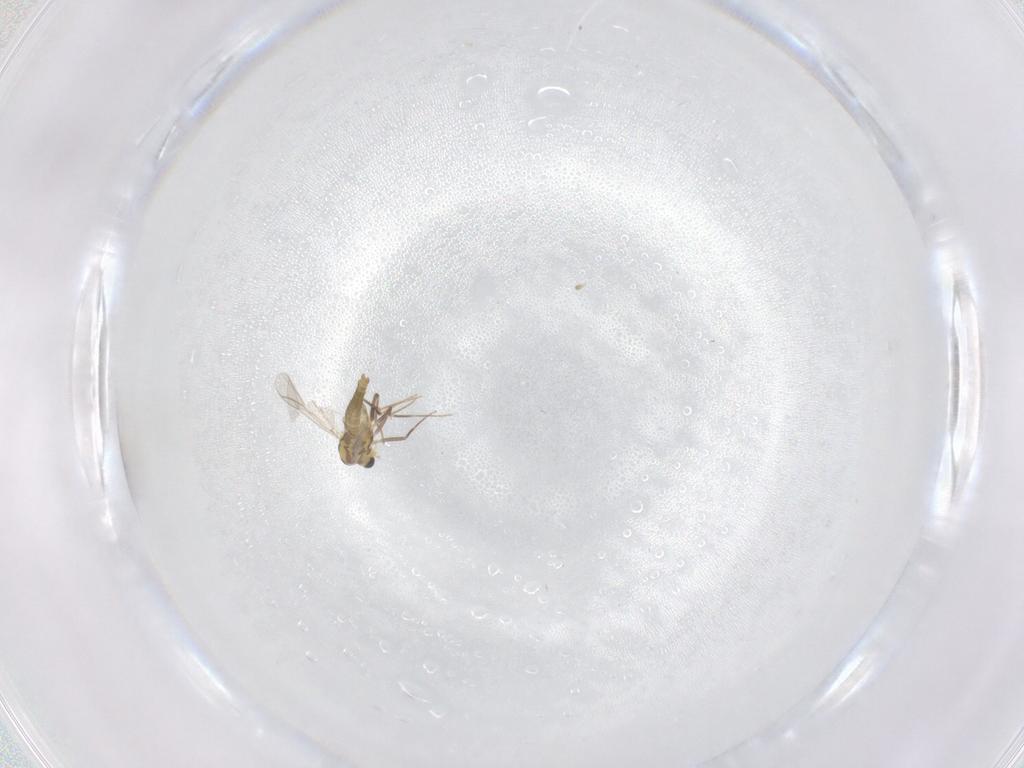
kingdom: Animalia
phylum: Arthropoda
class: Insecta
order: Diptera
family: Chironomidae
